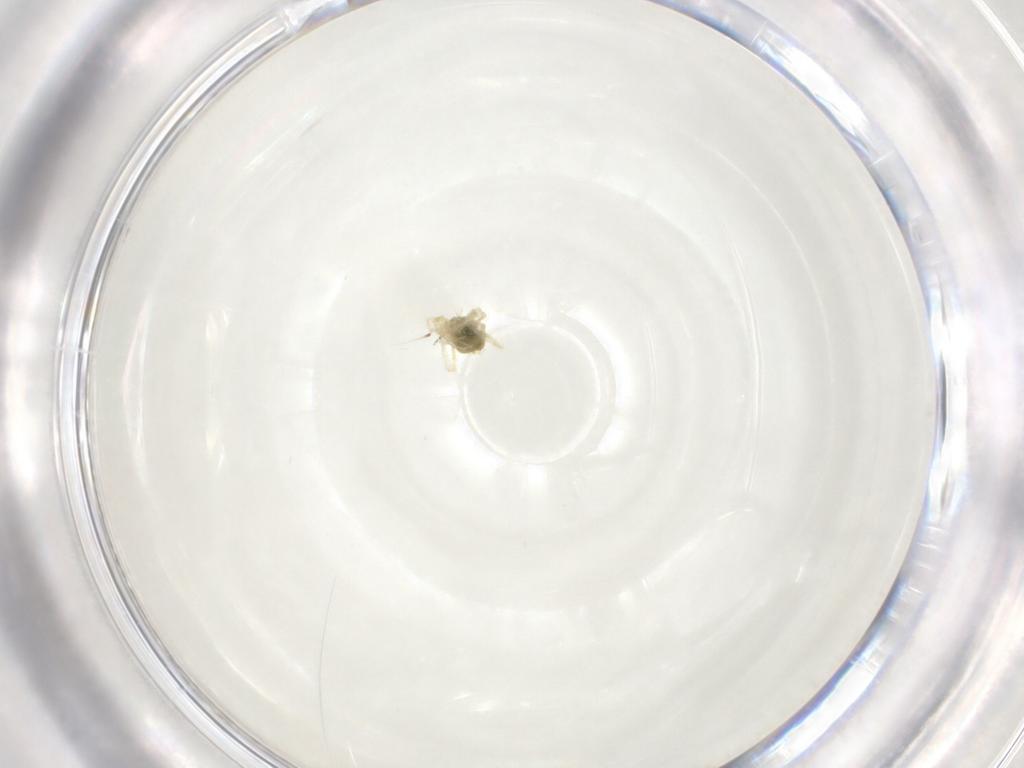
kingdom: Animalia
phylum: Arthropoda
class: Insecta
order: Diptera
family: Chironomidae
